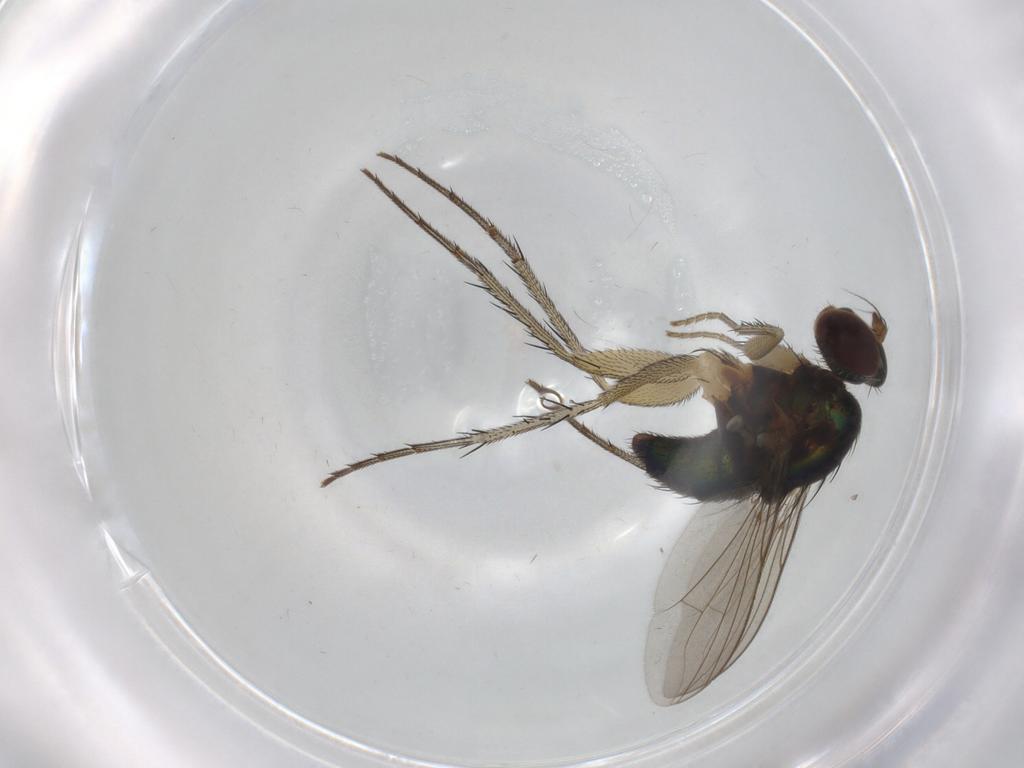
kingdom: Animalia
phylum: Arthropoda
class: Insecta
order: Diptera
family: Dolichopodidae
